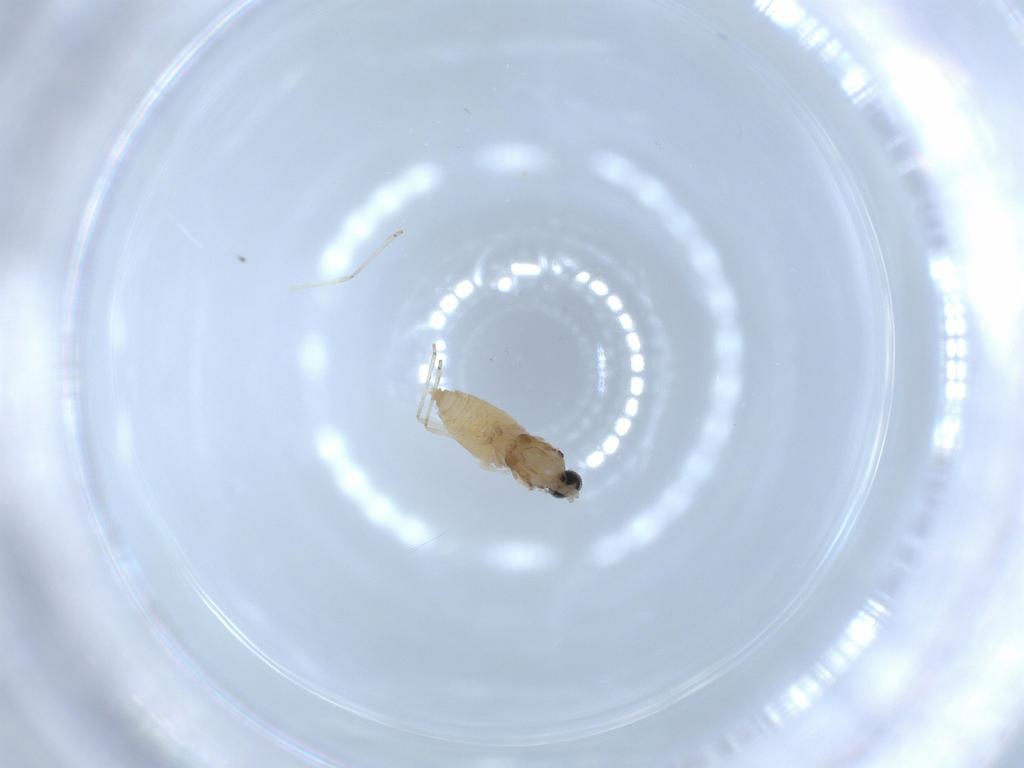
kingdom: Animalia
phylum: Arthropoda
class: Insecta
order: Diptera
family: Cecidomyiidae
